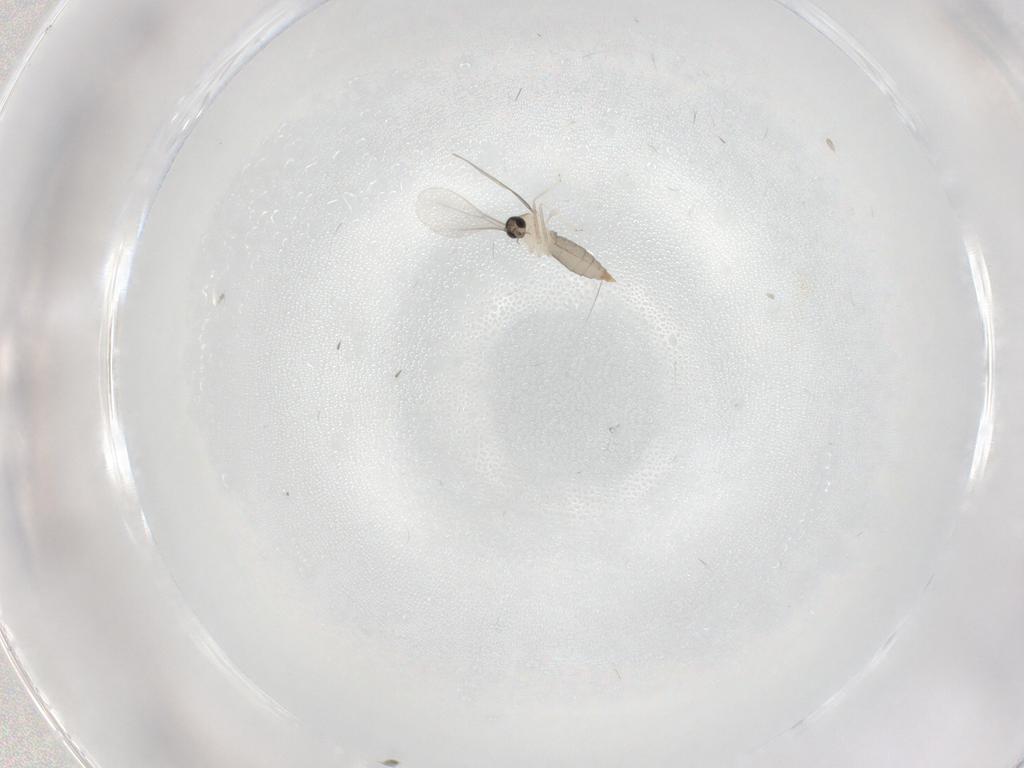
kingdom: Animalia
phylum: Arthropoda
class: Insecta
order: Diptera
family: Cecidomyiidae
